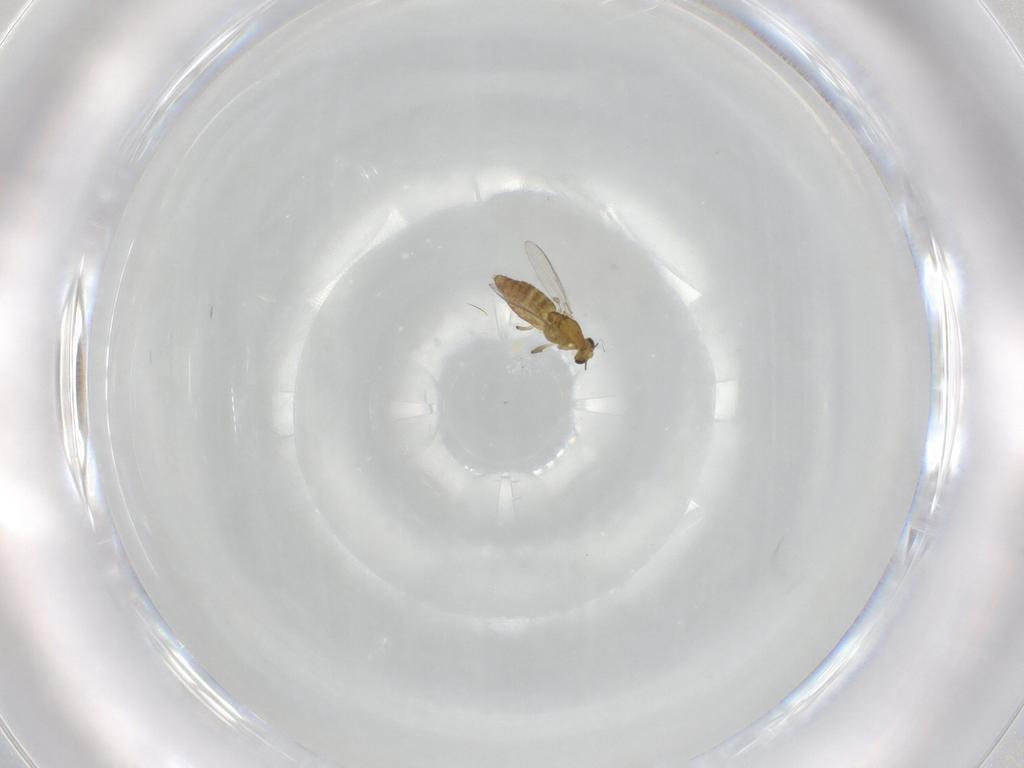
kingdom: Animalia
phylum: Arthropoda
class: Insecta
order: Diptera
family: Chironomidae
